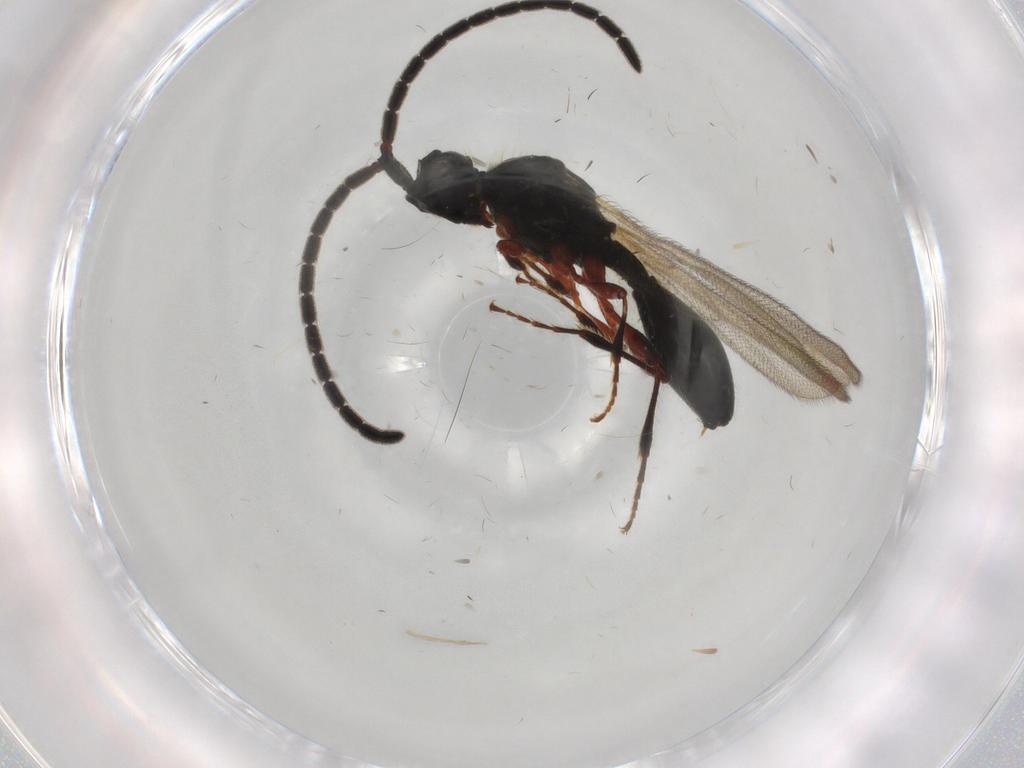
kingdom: Animalia
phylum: Arthropoda
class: Insecta
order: Hymenoptera
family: Diapriidae
